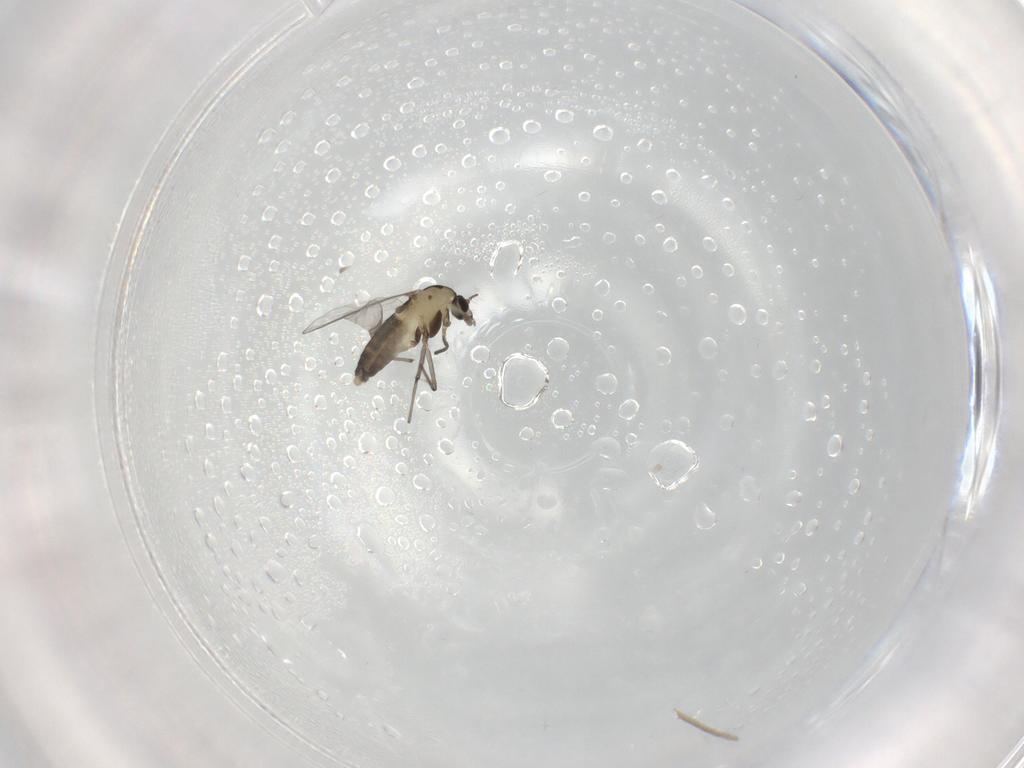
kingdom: Animalia
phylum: Arthropoda
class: Insecta
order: Diptera
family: Chironomidae
